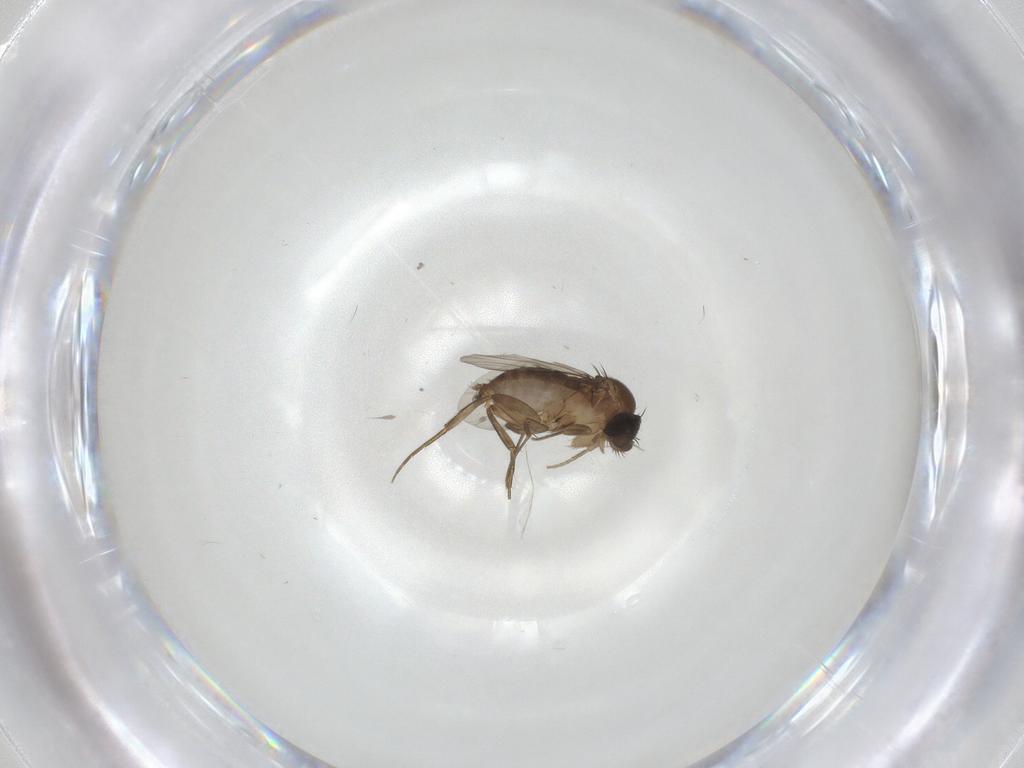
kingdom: Animalia
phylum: Arthropoda
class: Insecta
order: Diptera
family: Phoridae
